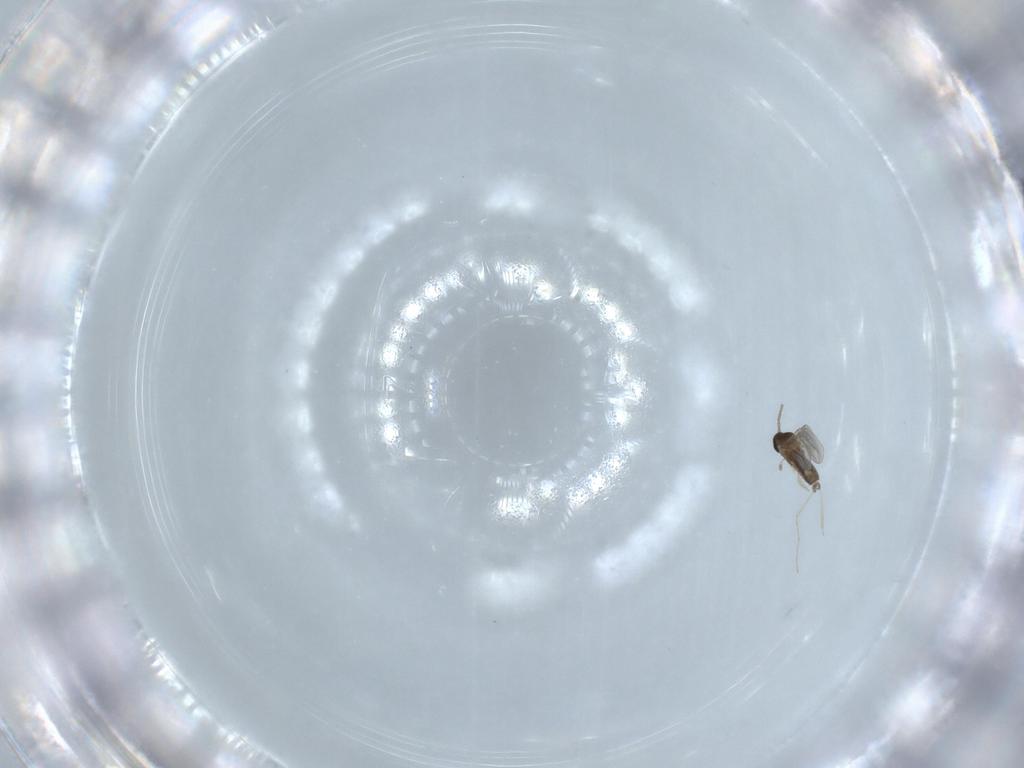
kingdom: Animalia
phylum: Arthropoda
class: Insecta
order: Diptera
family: Cecidomyiidae
